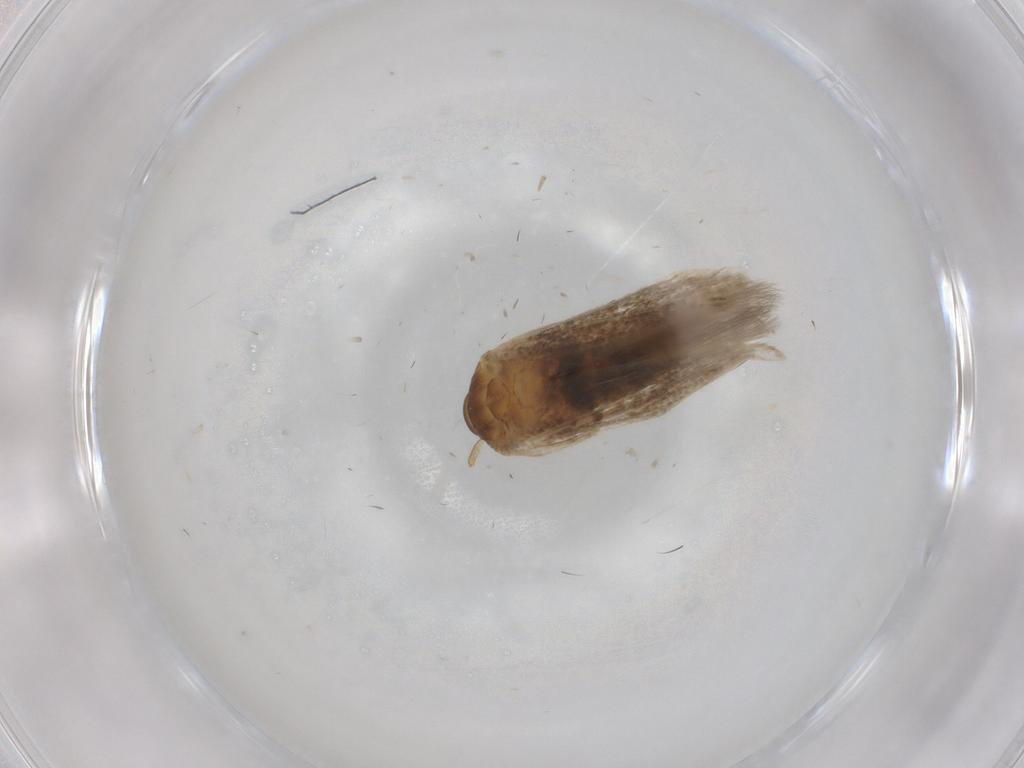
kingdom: Animalia
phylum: Arthropoda
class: Insecta
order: Lepidoptera
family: Cosmopterigidae
